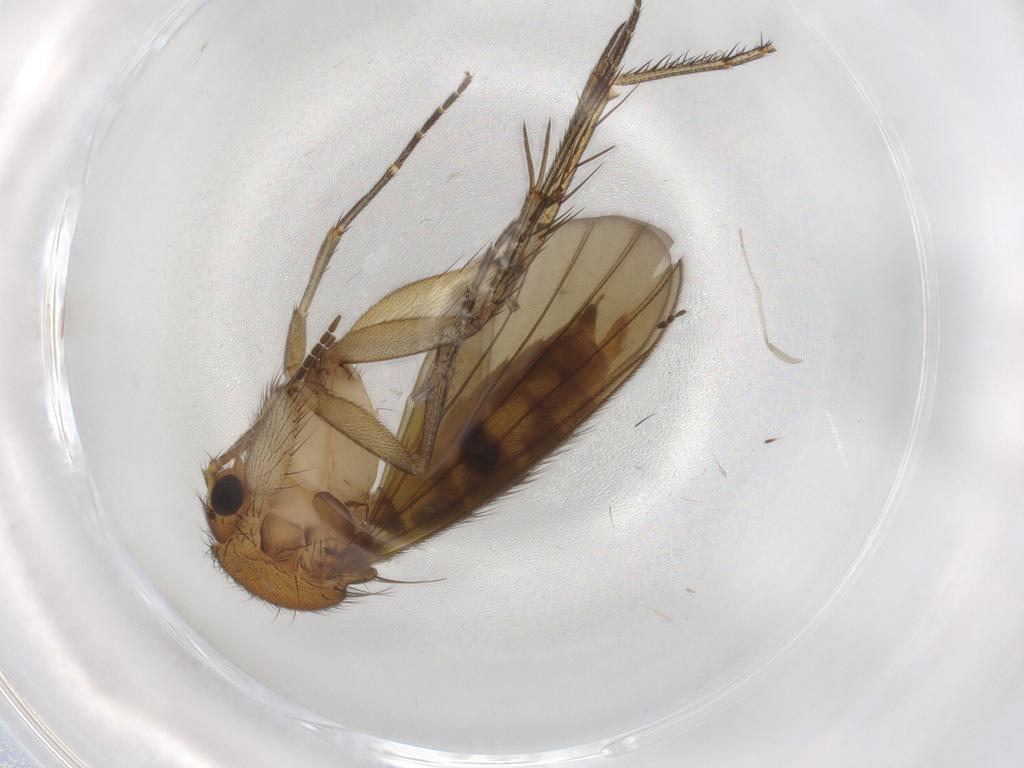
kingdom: Animalia
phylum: Arthropoda
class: Insecta
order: Diptera
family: Hybotidae
